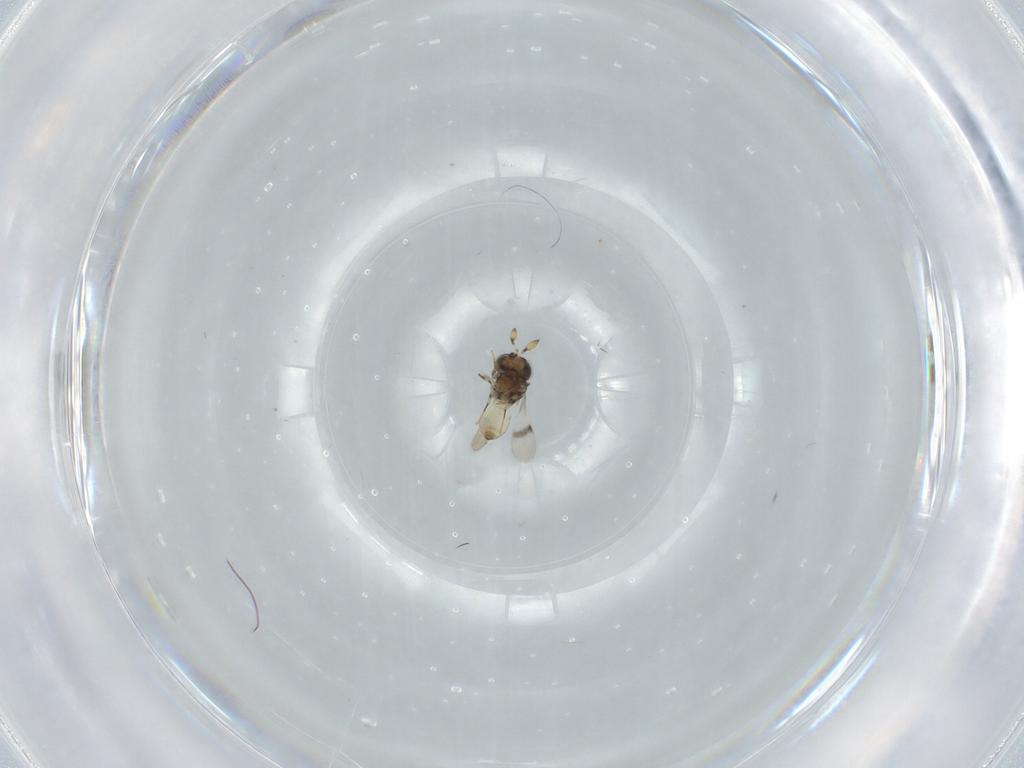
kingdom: Animalia
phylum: Arthropoda
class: Insecta
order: Hymenoptera
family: Scelionidae
